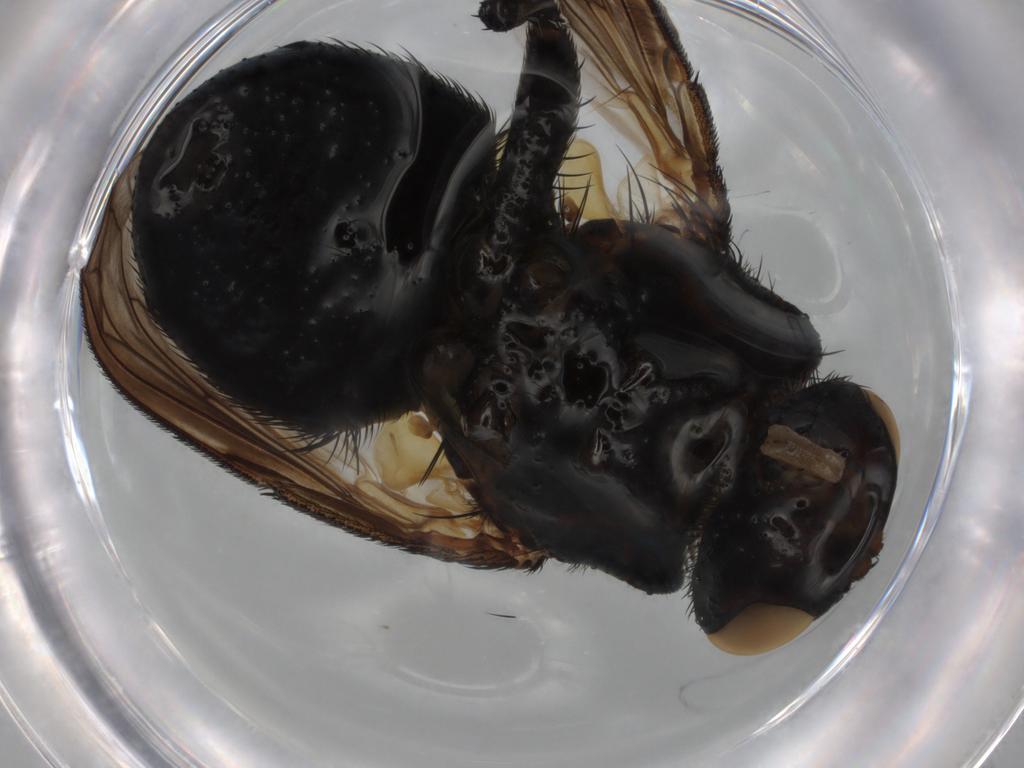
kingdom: Animalia
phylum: Arthropoda
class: Insecta
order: Diptera
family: Tachinidae
